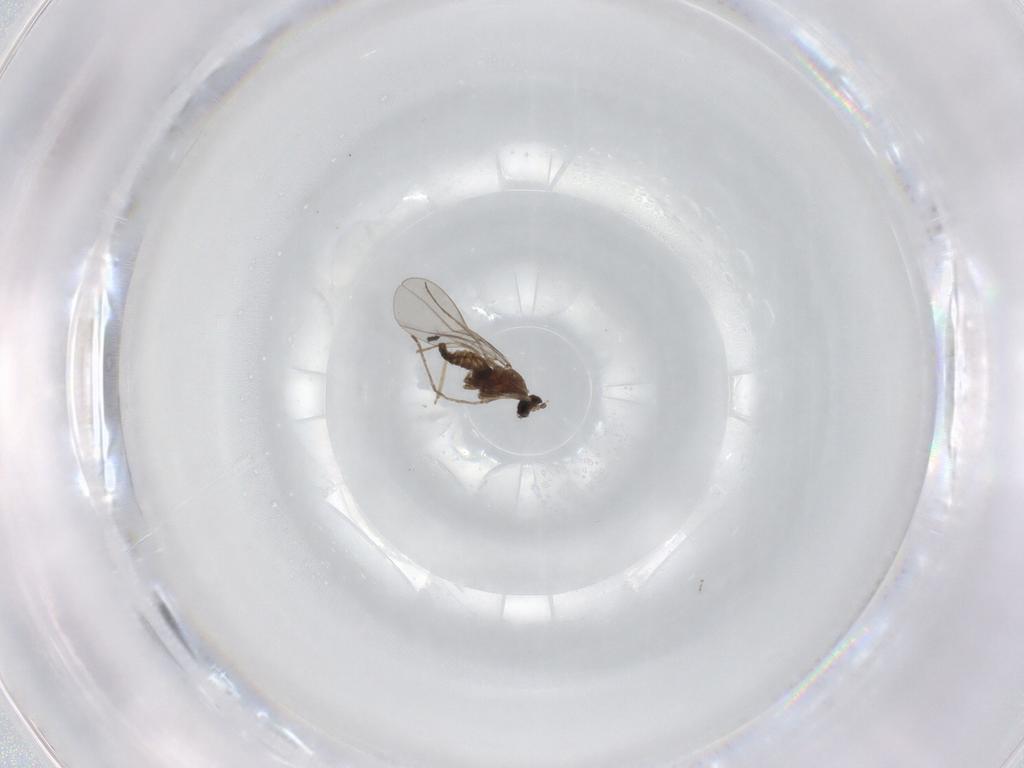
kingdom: Animalia
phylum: Arthropoda
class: Insecta
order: Diptera
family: Cecidomyiidae
